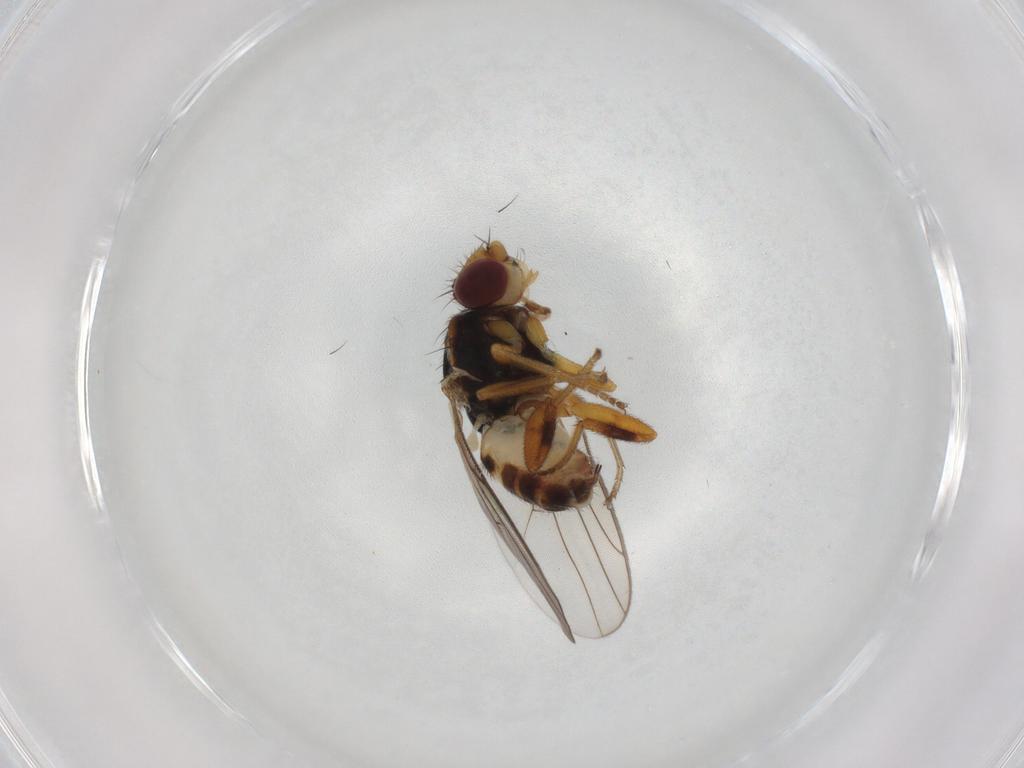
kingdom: Animalia
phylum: Arthropoda
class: Insecta
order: Diptera
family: Chloropidae
